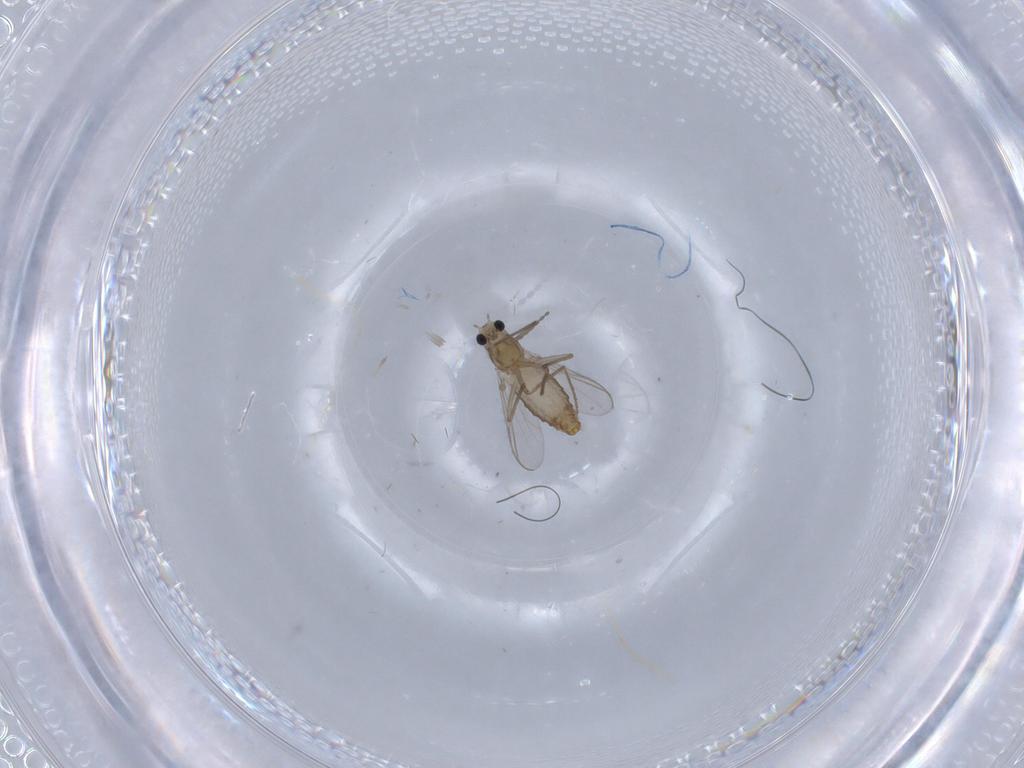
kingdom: Animalia
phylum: Arthropoda
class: Insecta
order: Diptera
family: Chironomidae
